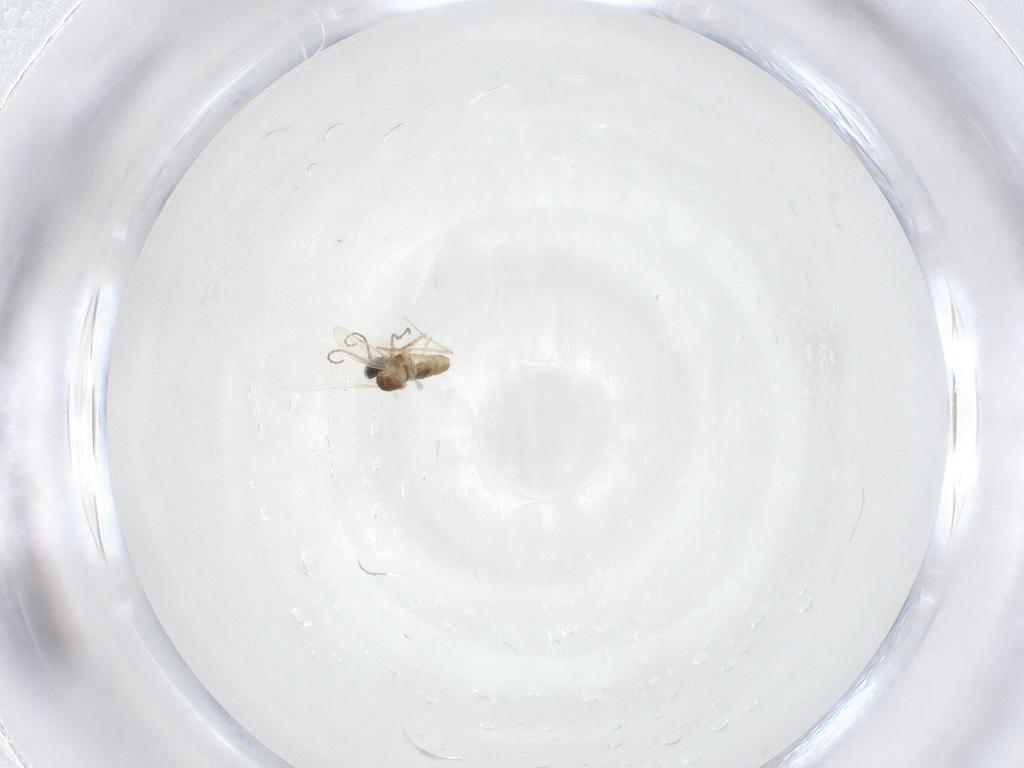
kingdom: Animalia
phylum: Arthropoda
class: Insecta
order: Diptera
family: Cecidomyiidae
